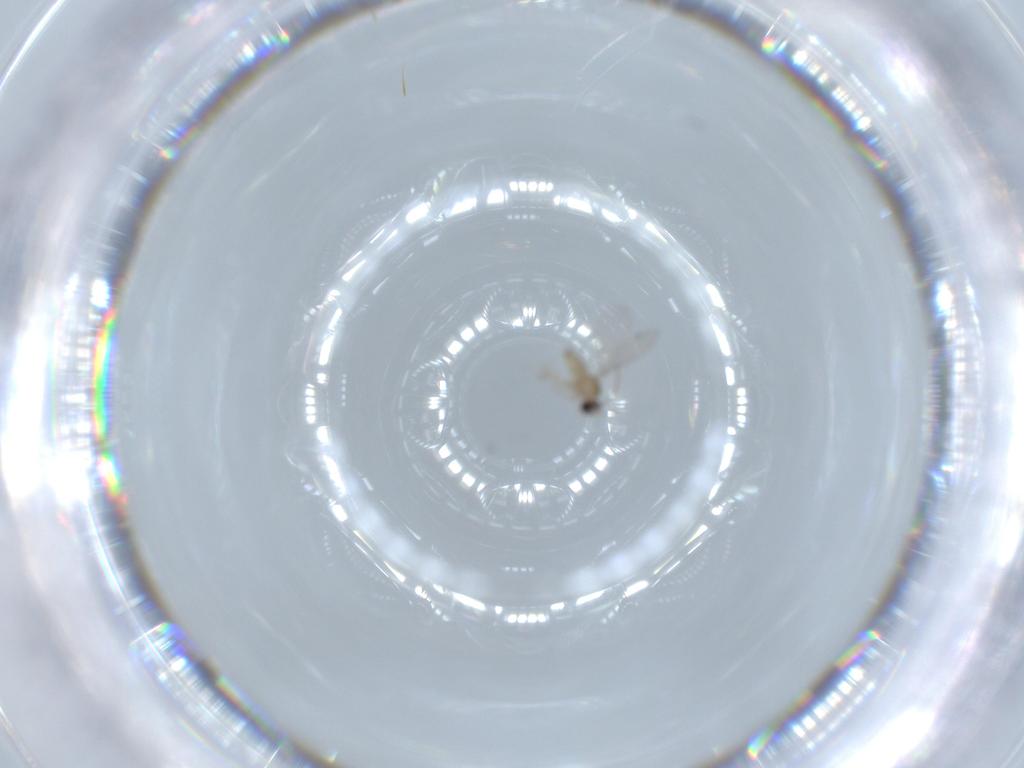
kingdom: Animalia
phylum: Arthropoda
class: Insecta
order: Diptera
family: Cecidomyiidae
